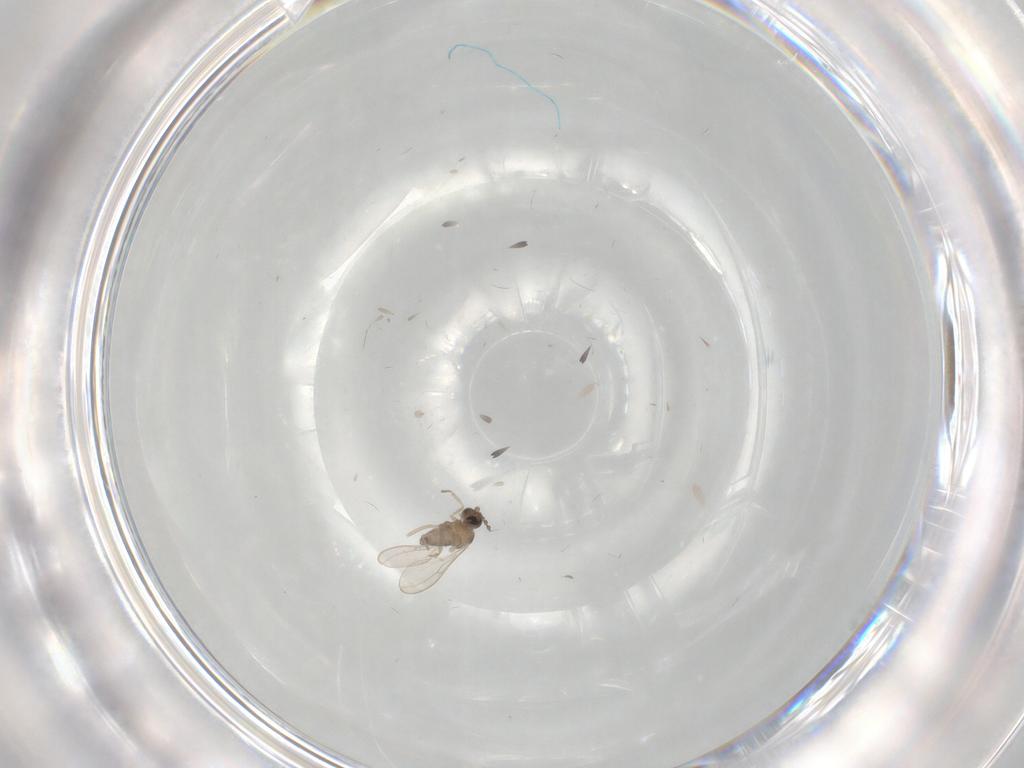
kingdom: Animalia
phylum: Arthropoda
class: Insecta
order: Diptera
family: Cecidomyiidae
